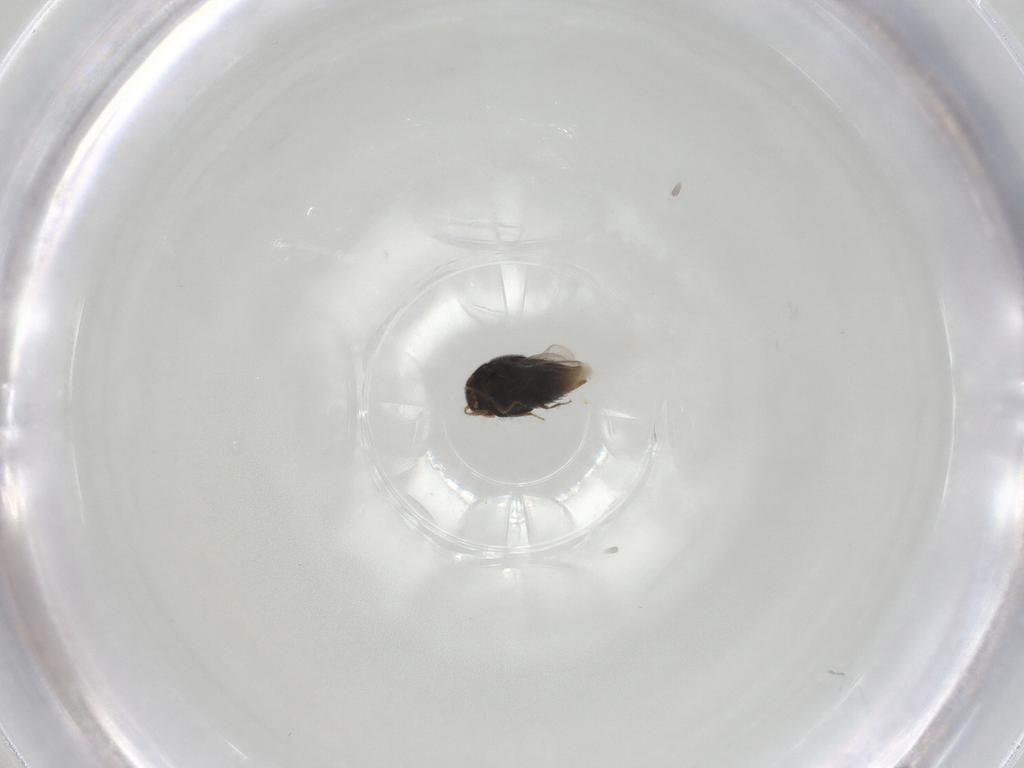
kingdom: Animalia
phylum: Arthropoda
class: Insecta
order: Coleoptera
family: Staphylinidae
